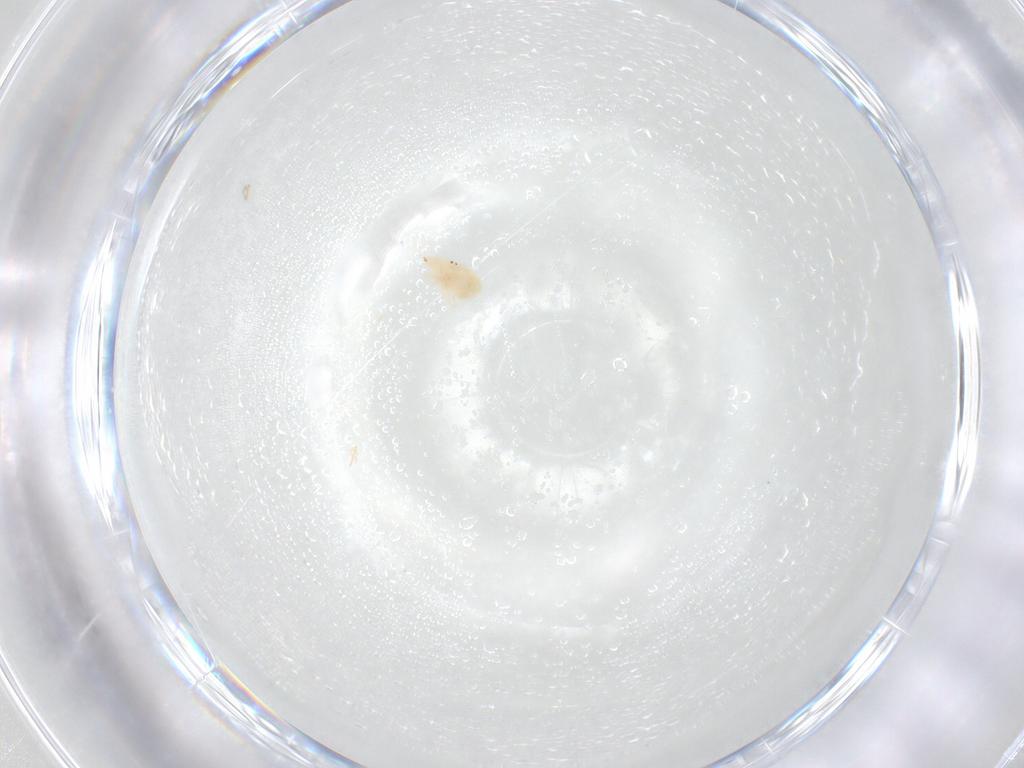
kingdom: Animalia
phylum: Arthropoda
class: Arachnida
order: Trombidiformes
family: Bdellidae
